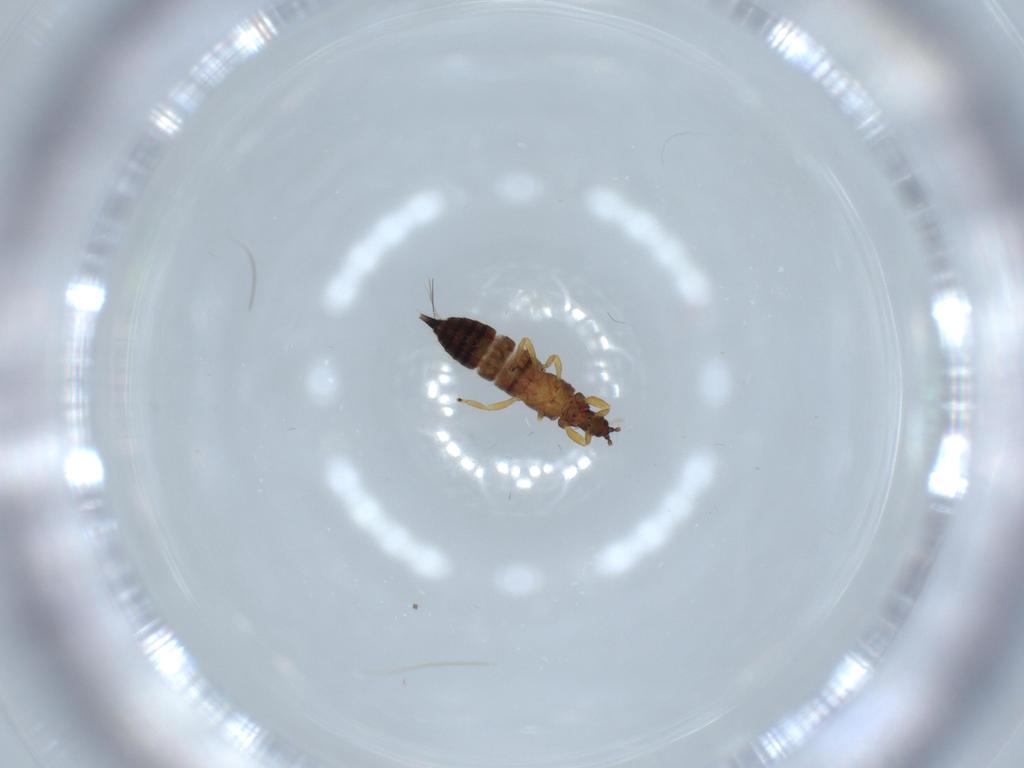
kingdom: Animalia
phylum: Arthropoda
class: Insecta
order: Thysanoptera
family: Phlaeothripidae
